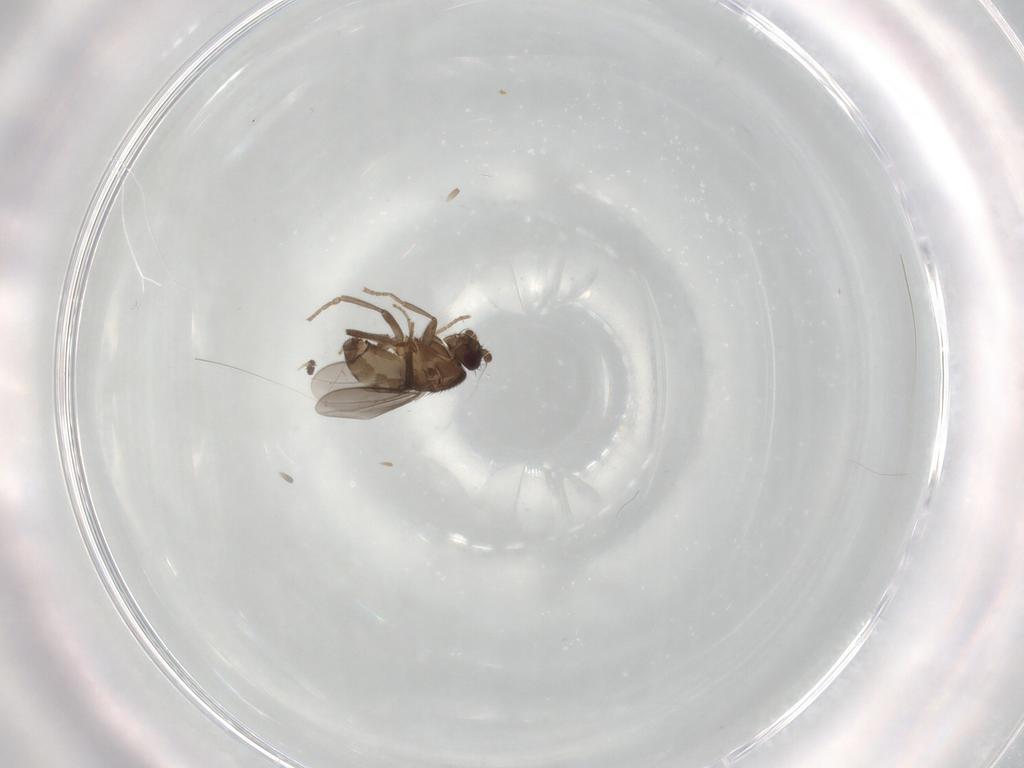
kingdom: Animalia
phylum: Arthropoda
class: Insecta
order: Diptera
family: Sphaeroceridae
